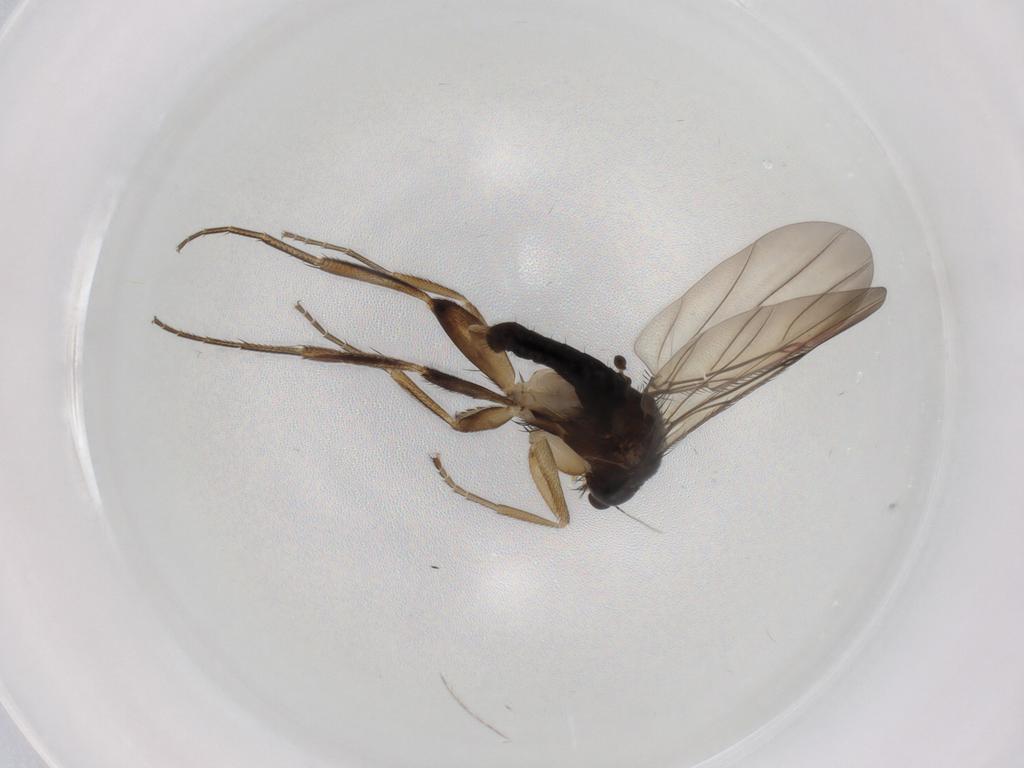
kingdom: Animalia
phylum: Arthropoda
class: Insecta
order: Diptera
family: Phoridae
